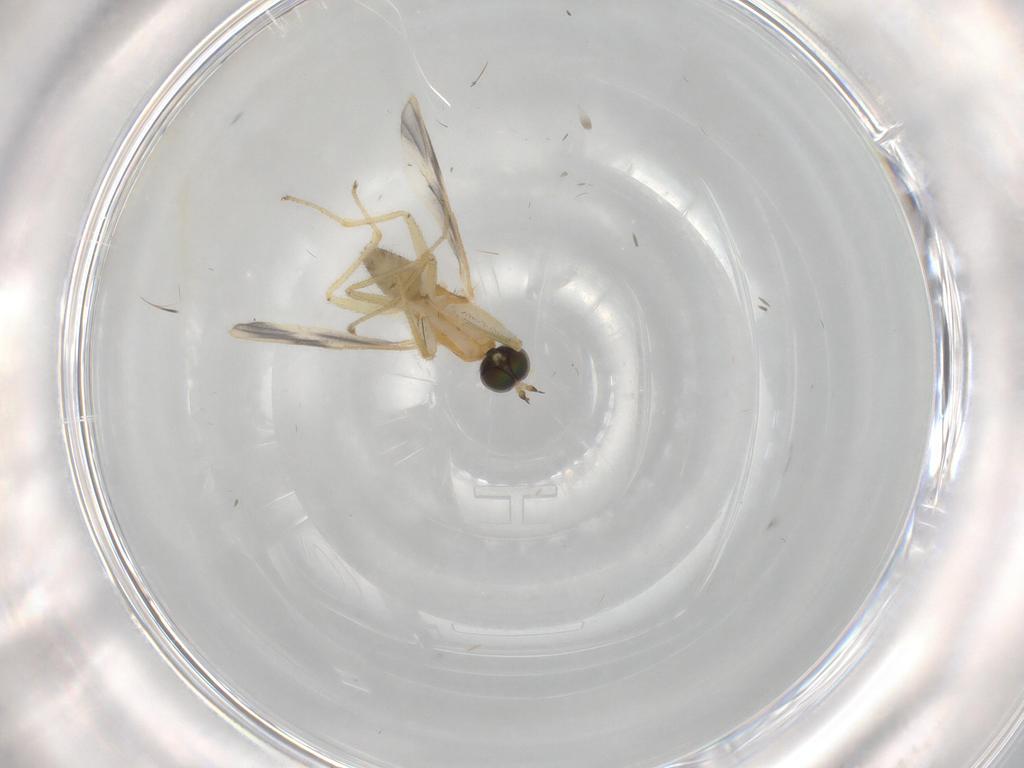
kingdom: Animalia
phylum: Arthropoda
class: Insecta
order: Diptera
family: Empididae
